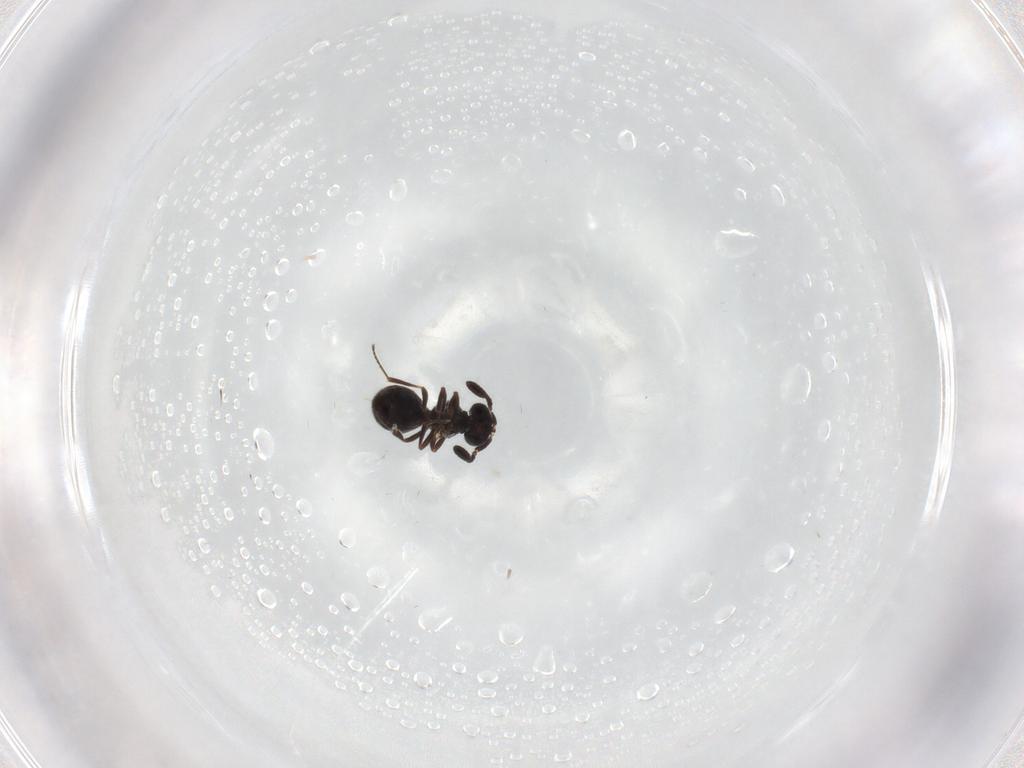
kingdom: Animalia
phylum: Arthropoda
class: Insecta
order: Hymenoptera
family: Scelionidae
